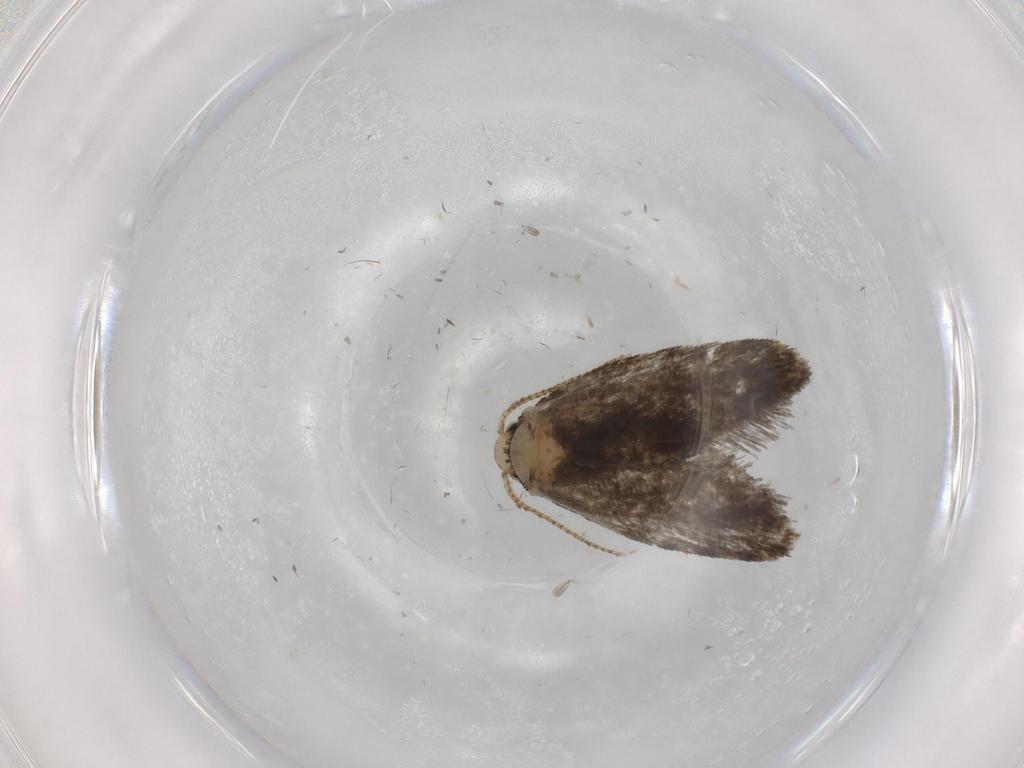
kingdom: Animalia
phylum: Arthropoda
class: Insecta
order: Lepidoptera
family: Psychidae
